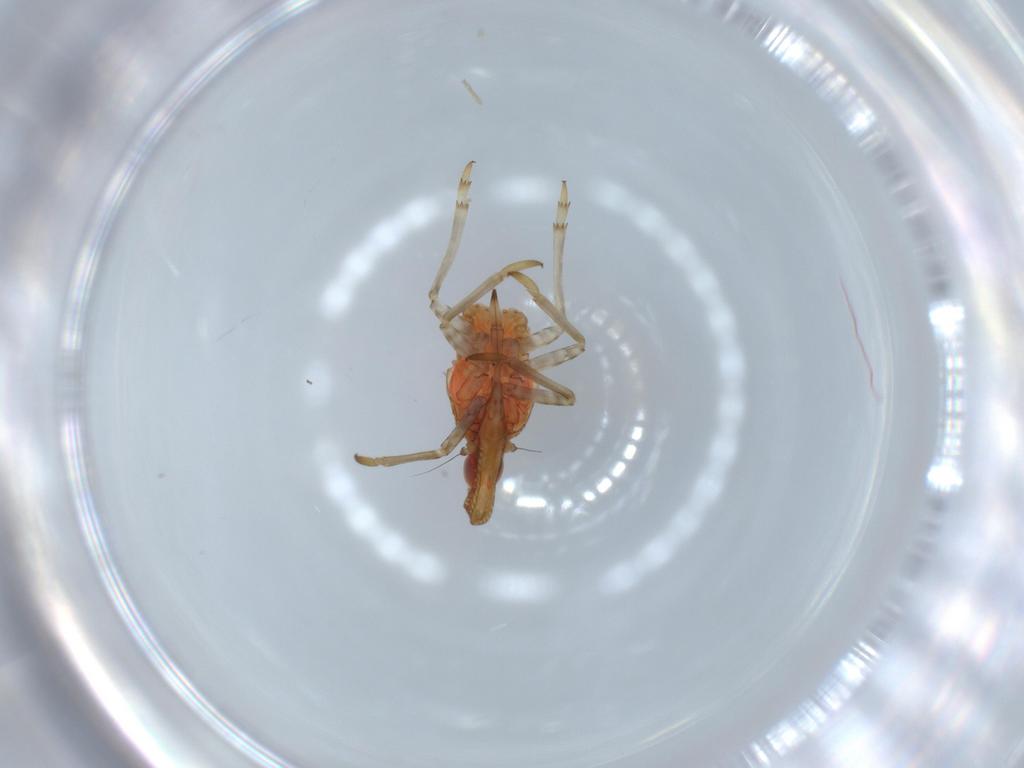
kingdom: Animalia
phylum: Arthropoda
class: Insecta
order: Hemiptera
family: Fulgoroidea_incertae_sedis
